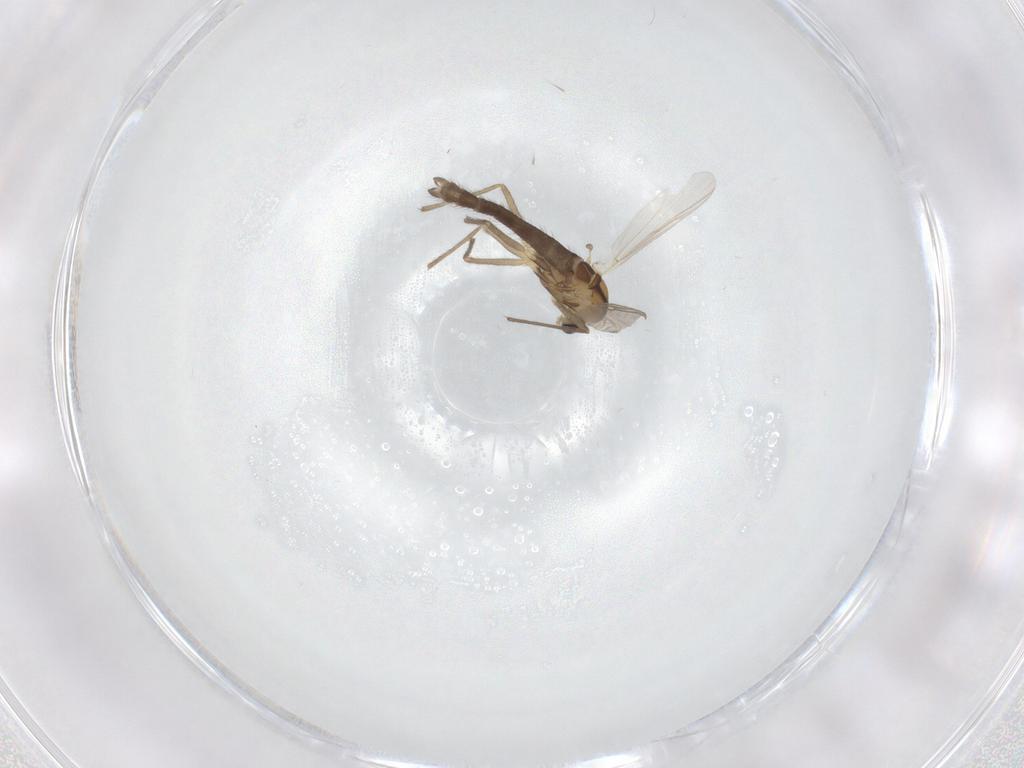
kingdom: Animalia
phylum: Arthropoda
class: Insecta
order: Diptera
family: Chironomidae
